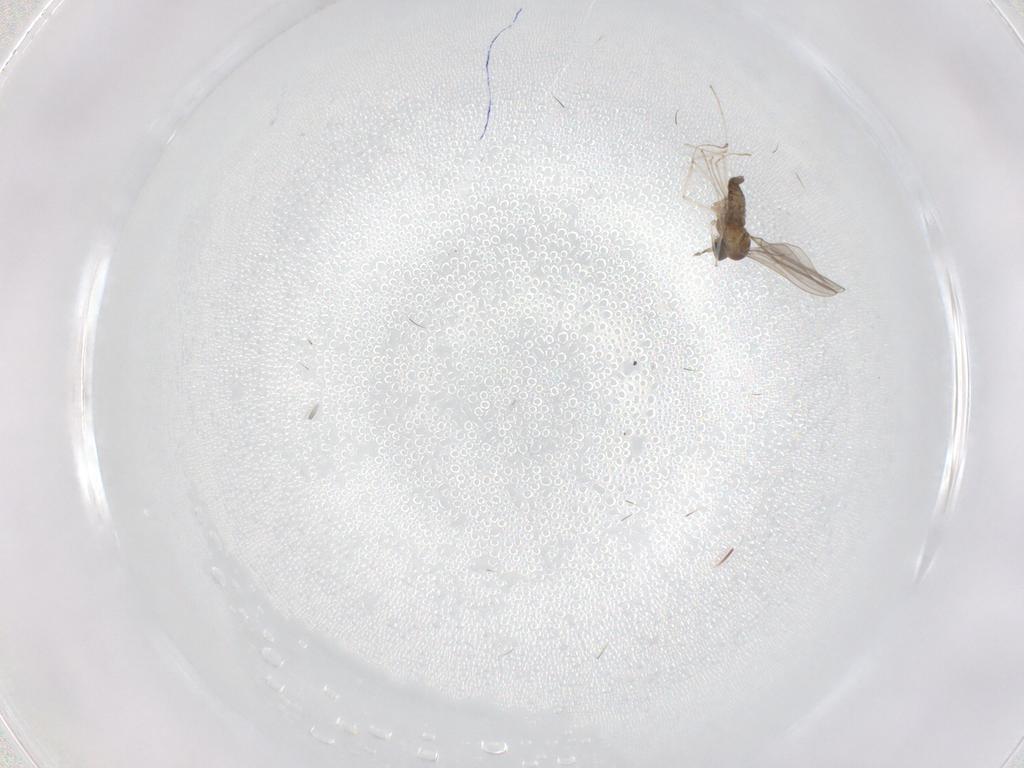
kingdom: Animalia
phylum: Arthropoda
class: Insecta
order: Diptera
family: Cecidomyiidae
